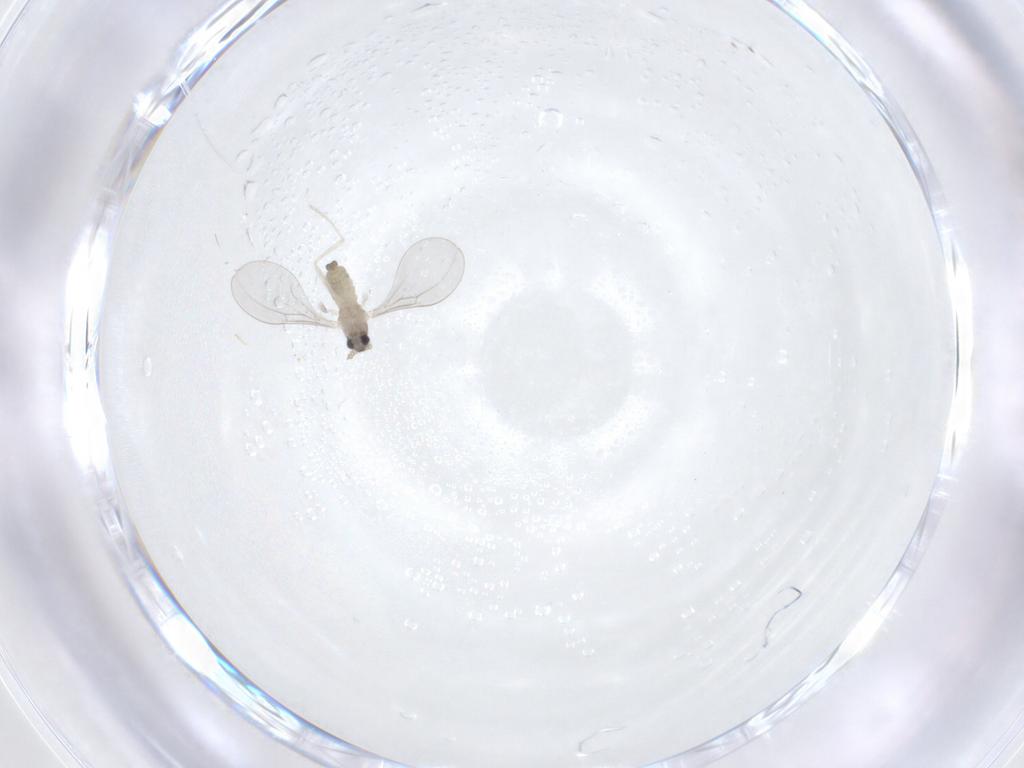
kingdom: Animalia
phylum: Arthropoda
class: Insecta
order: Diptera
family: Cecidomyiidae
